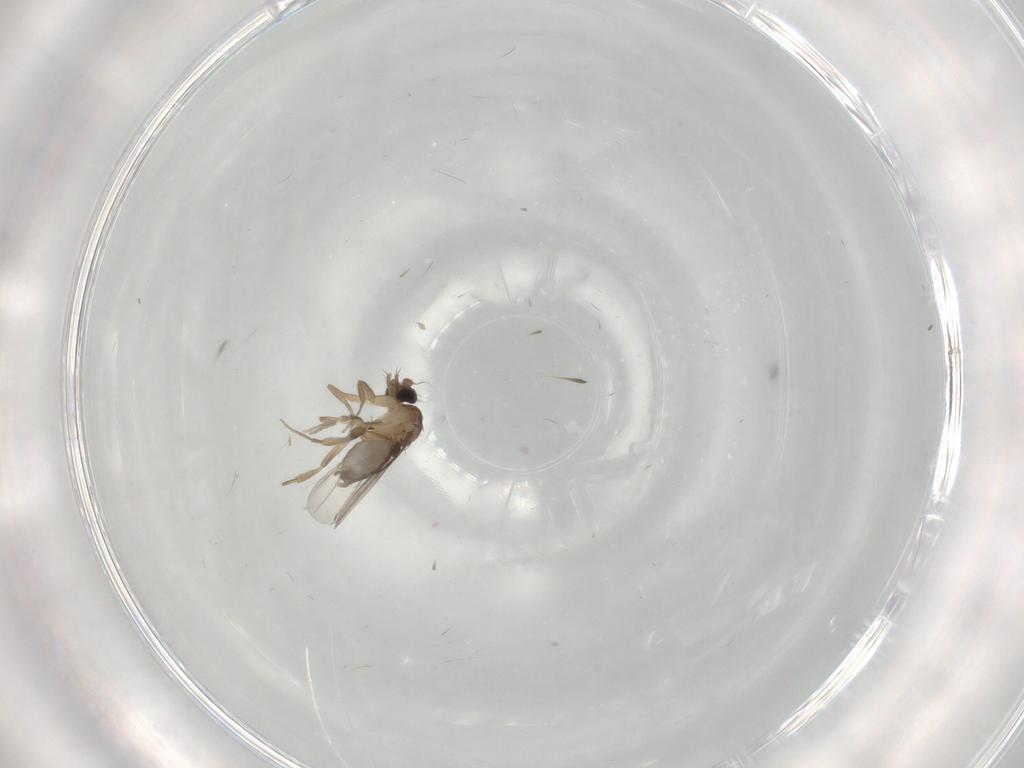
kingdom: Animalia
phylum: Arthropoda
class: Insecta
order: Diptera
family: Phoridae
